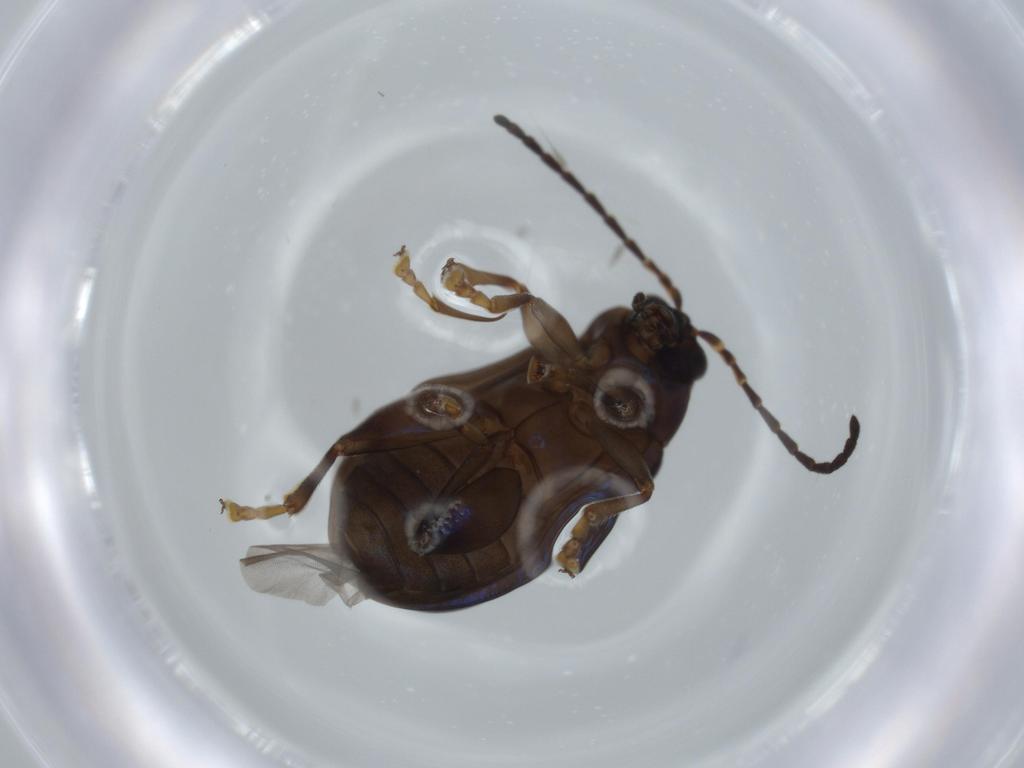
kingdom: Animalia
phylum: Arthropoda
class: Insecta
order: Coleoptera
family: Chrysomelidae
